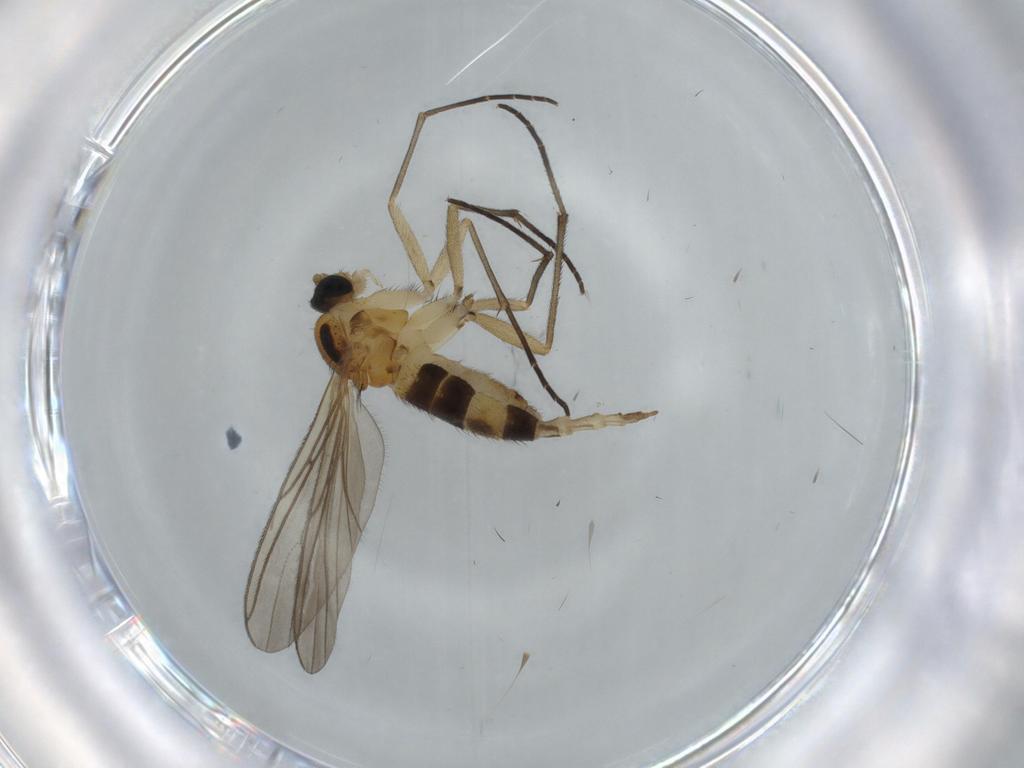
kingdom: Animalia
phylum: Arthropoda
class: Insecta
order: Diptera
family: Sciaridae
